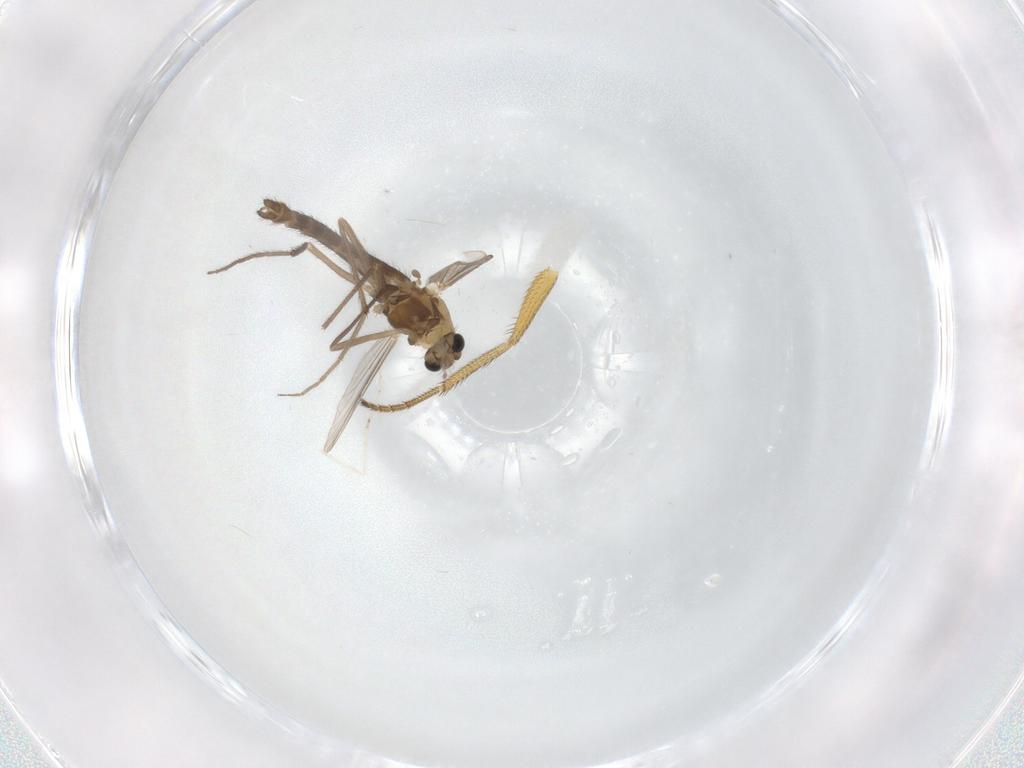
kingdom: Animalia
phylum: Arthropoda
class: Insecta
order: Diptera
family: Chironomidae
